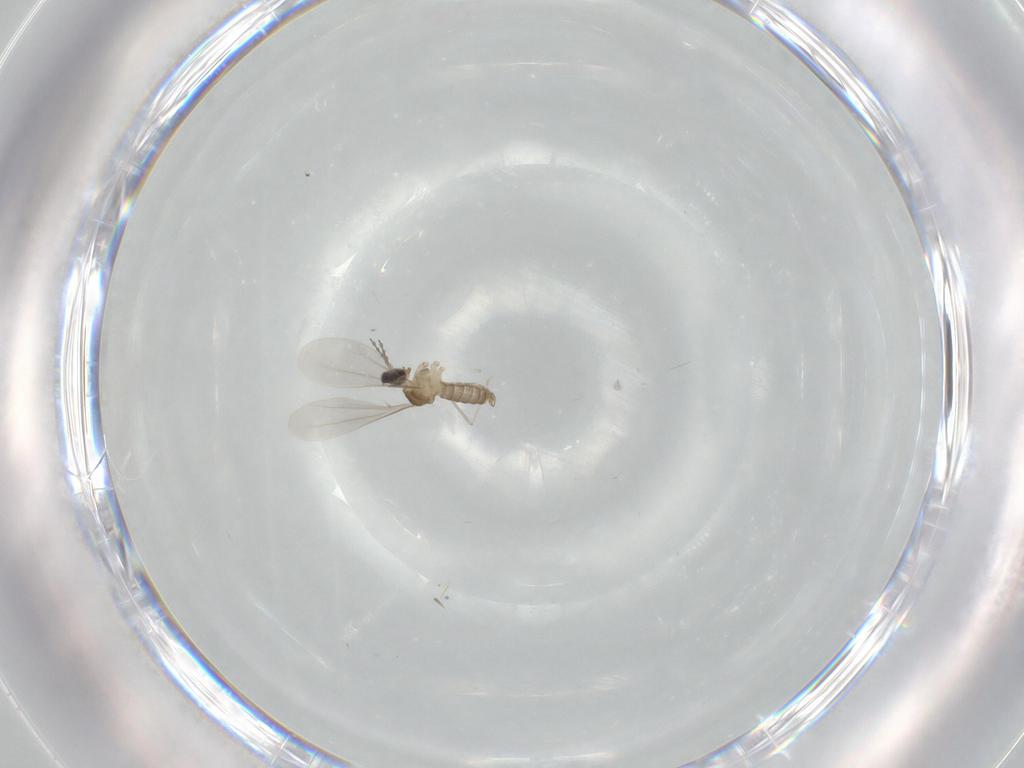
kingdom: Animalia
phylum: Arthropoda
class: Insecta
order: Diptera
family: Cecidomyiidae
